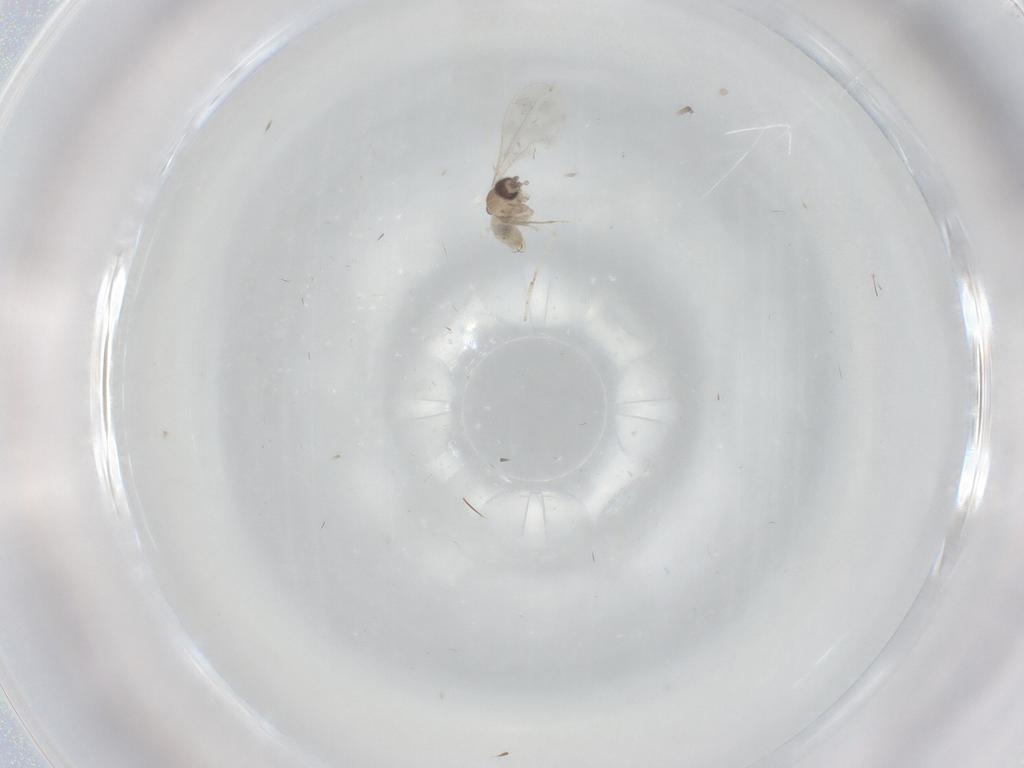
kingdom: Animalia
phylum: Arthropoda
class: Insecta
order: Diptera
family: Cecidomyiidae
